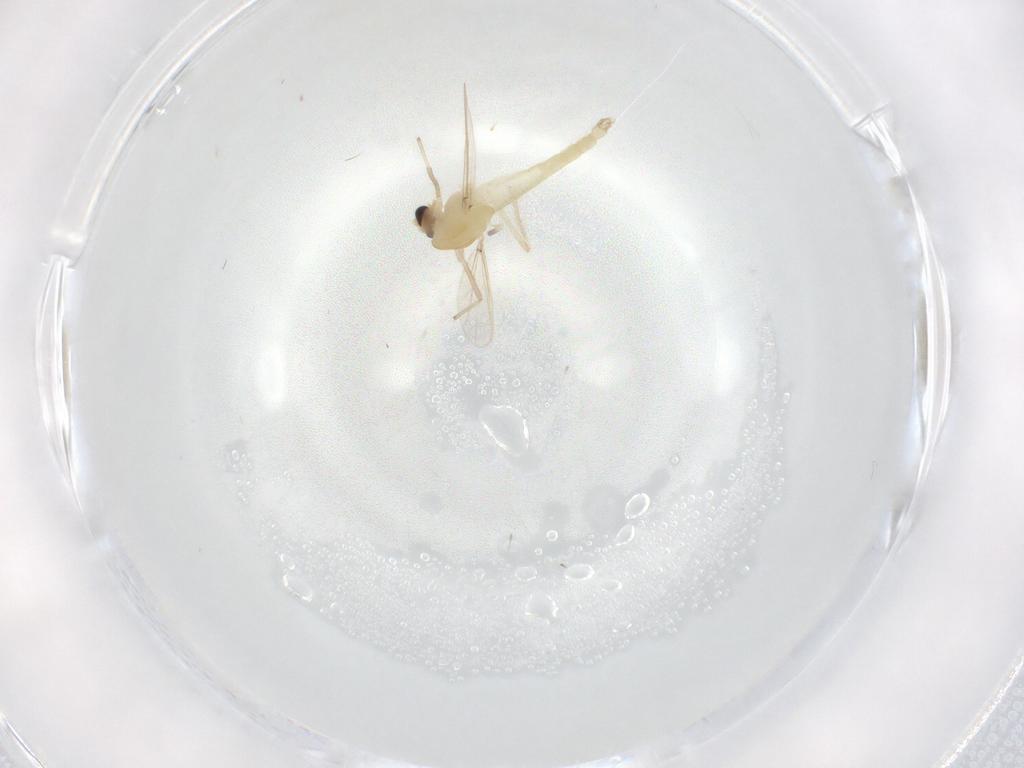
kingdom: Animalia
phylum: Arthropoda
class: Insecta
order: Diptera
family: Chironomidae
